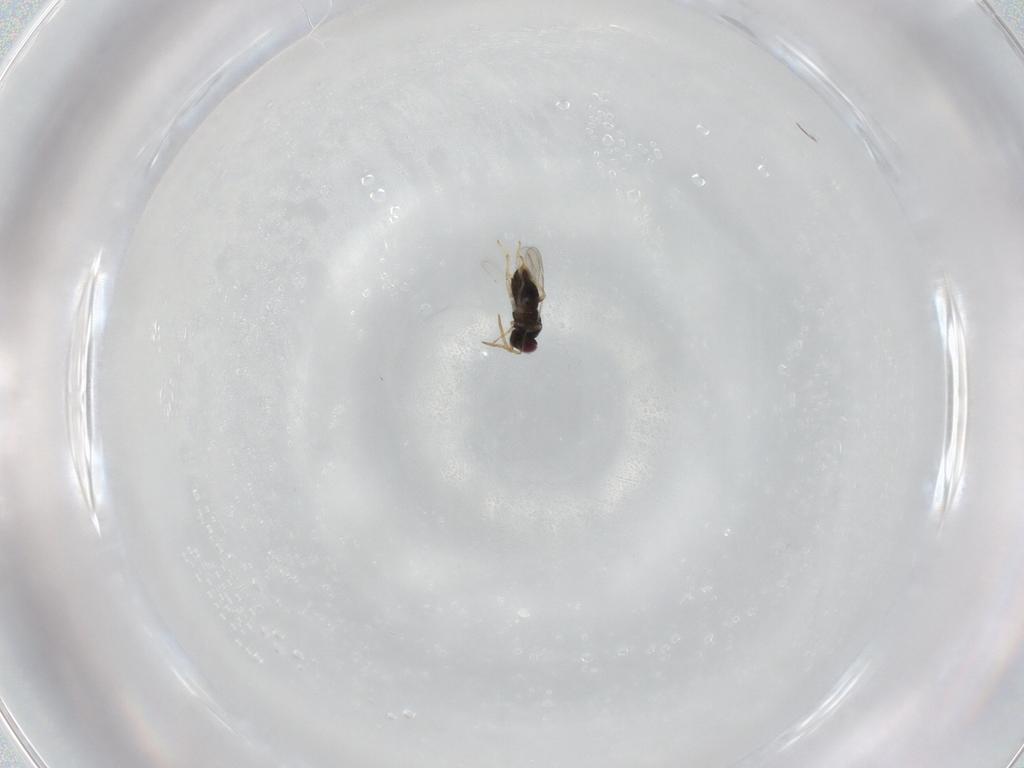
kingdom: Animalia
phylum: Arthropoda
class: Insecta
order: Hymenoptera
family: Aphelinidae
